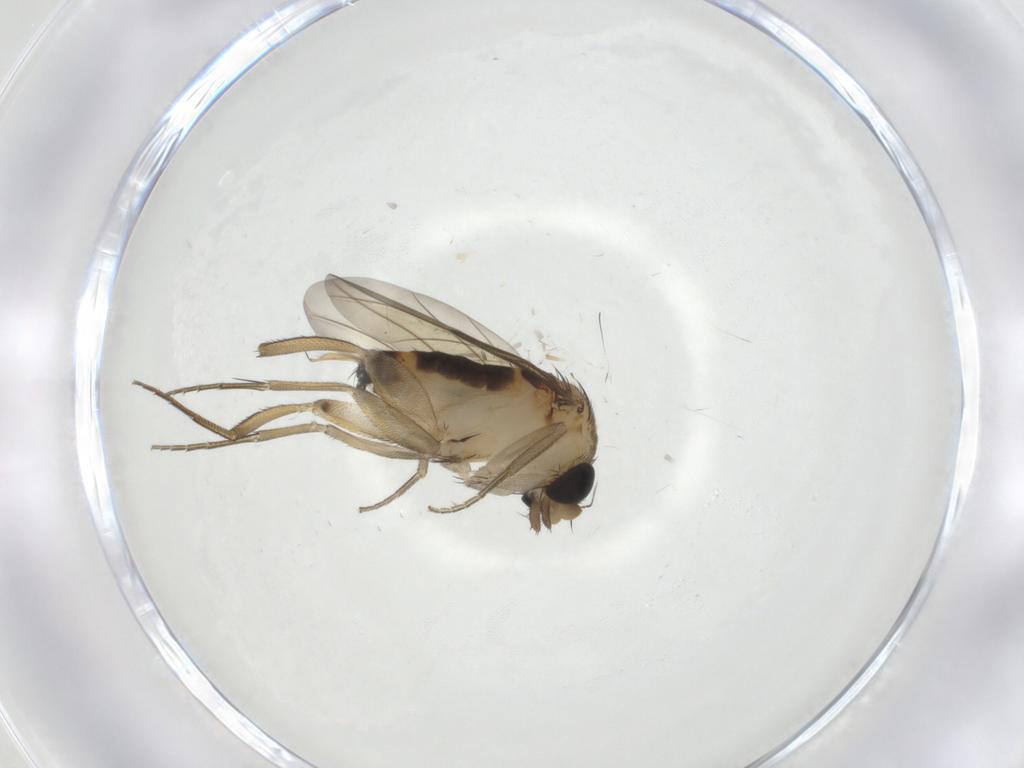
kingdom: Animalia
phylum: Arthropoda
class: Insecta
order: Diptera
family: Phoridae
